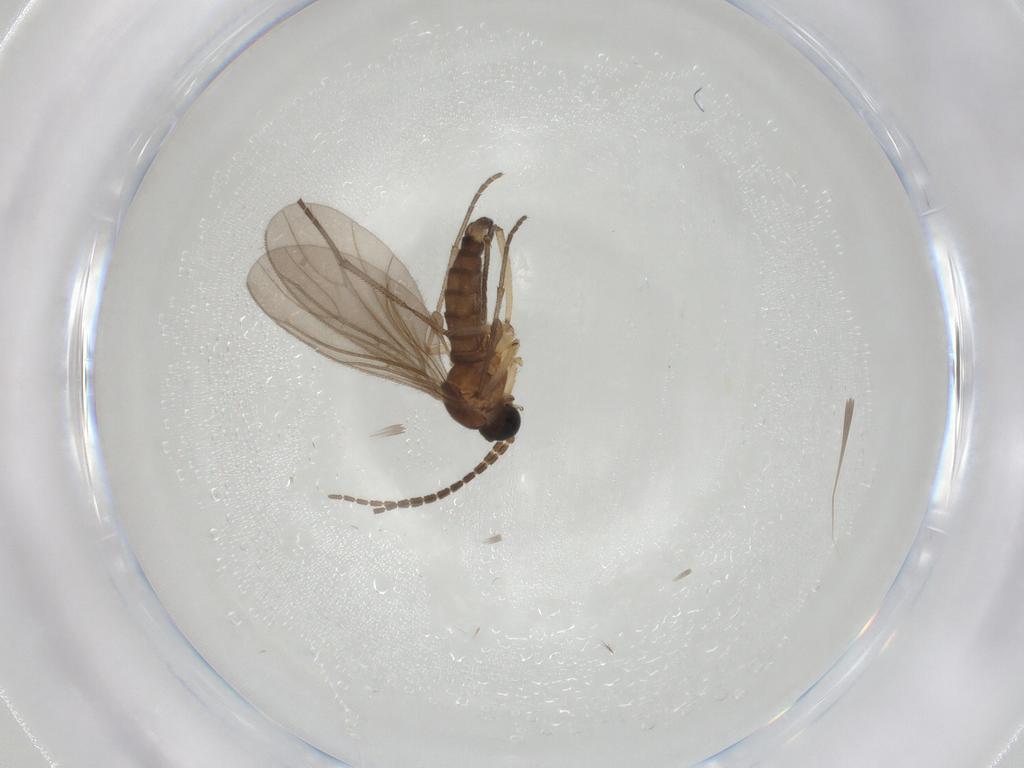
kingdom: Animalia
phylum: Arthropoda
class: Insecta
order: Diptera
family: Sciaridae
